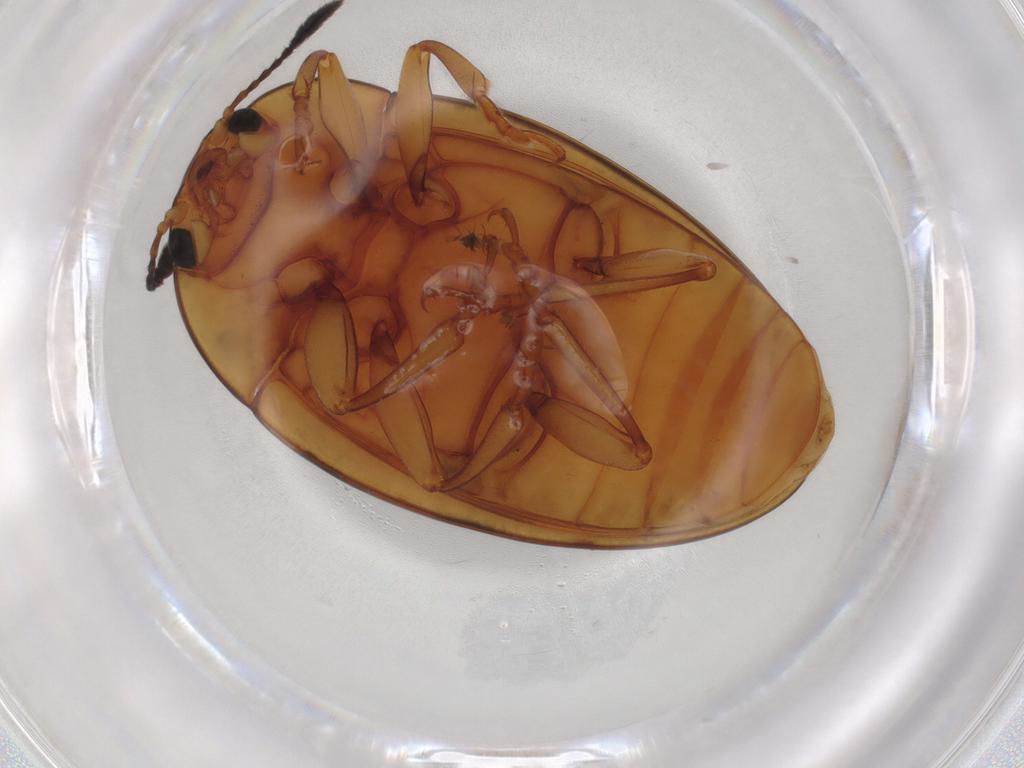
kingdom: Animalia
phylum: Arthropoda
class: Insecta
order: Coleoptera
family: Erotylidae
